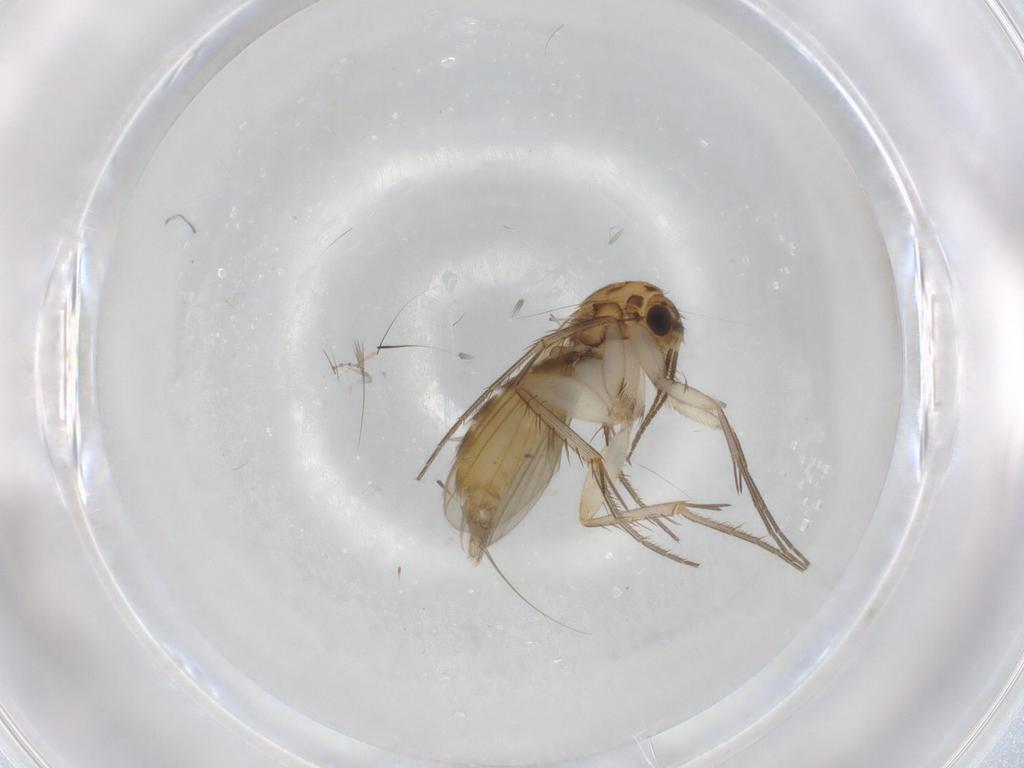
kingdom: Animalia
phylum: Arthropoda
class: Insecta
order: Diptera
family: Mycetophilidae
